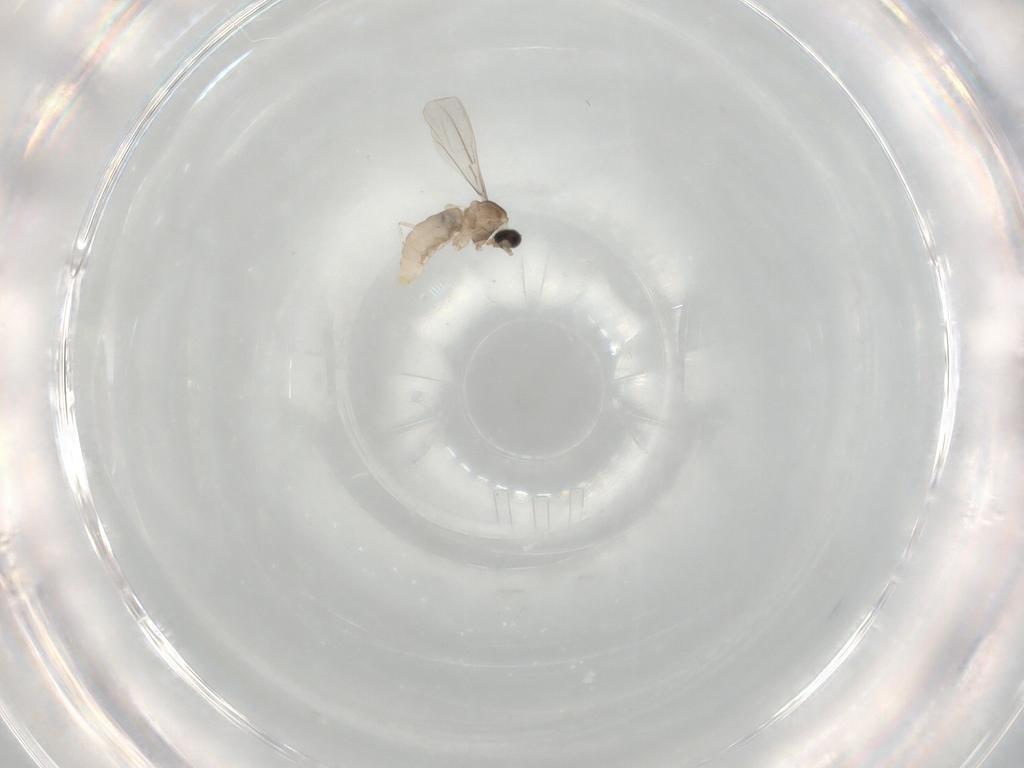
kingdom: Animalia
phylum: Arthropoda
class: Insecta
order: Diptera
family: Cecidomyiidae
